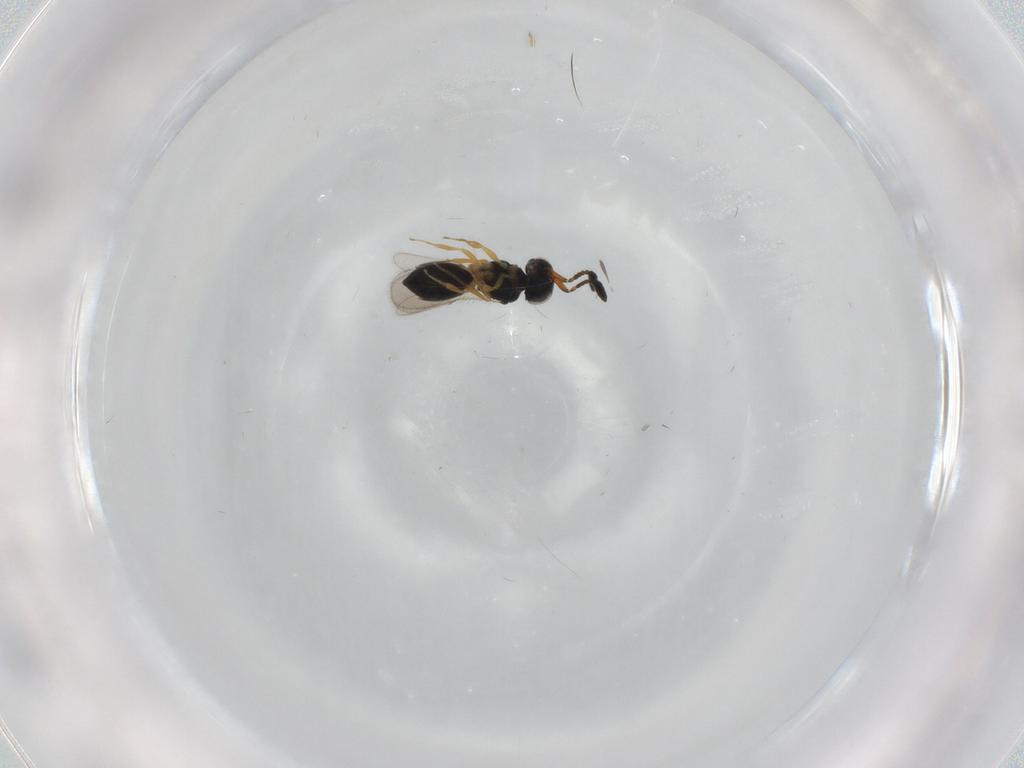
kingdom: Animalia
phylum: Arthropoda
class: Insecta
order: Hymenoptera
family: Scelionidae
